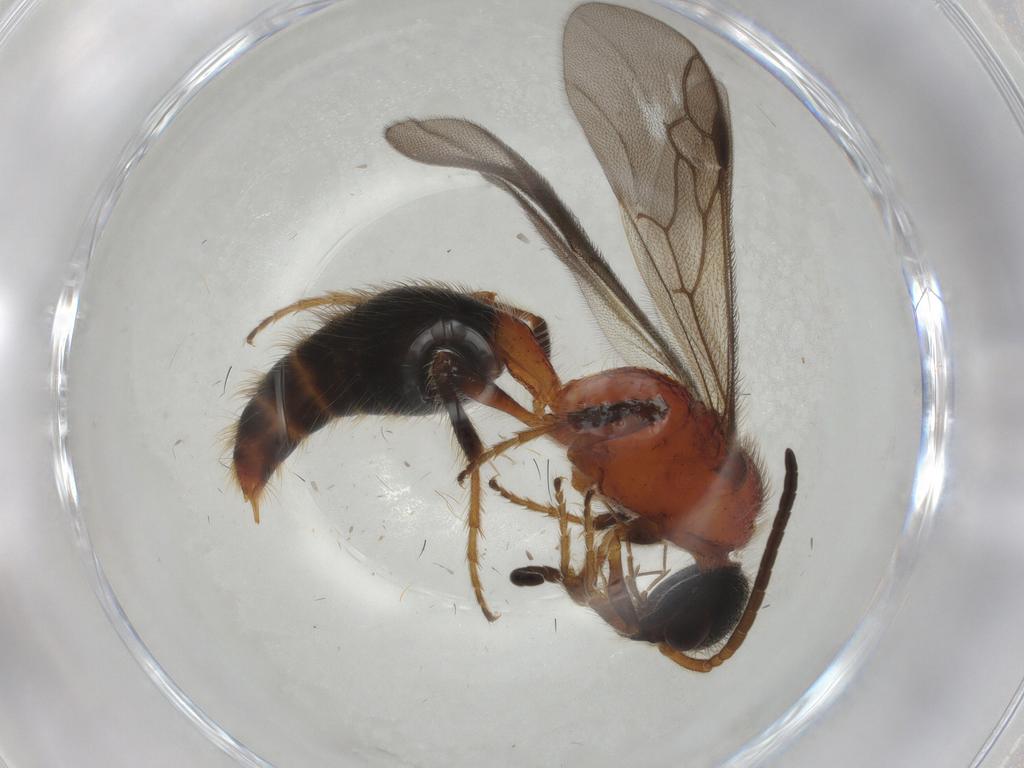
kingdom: Animalia
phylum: Arthropoda
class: Insecta
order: Hymenoptera
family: Mutillidae
